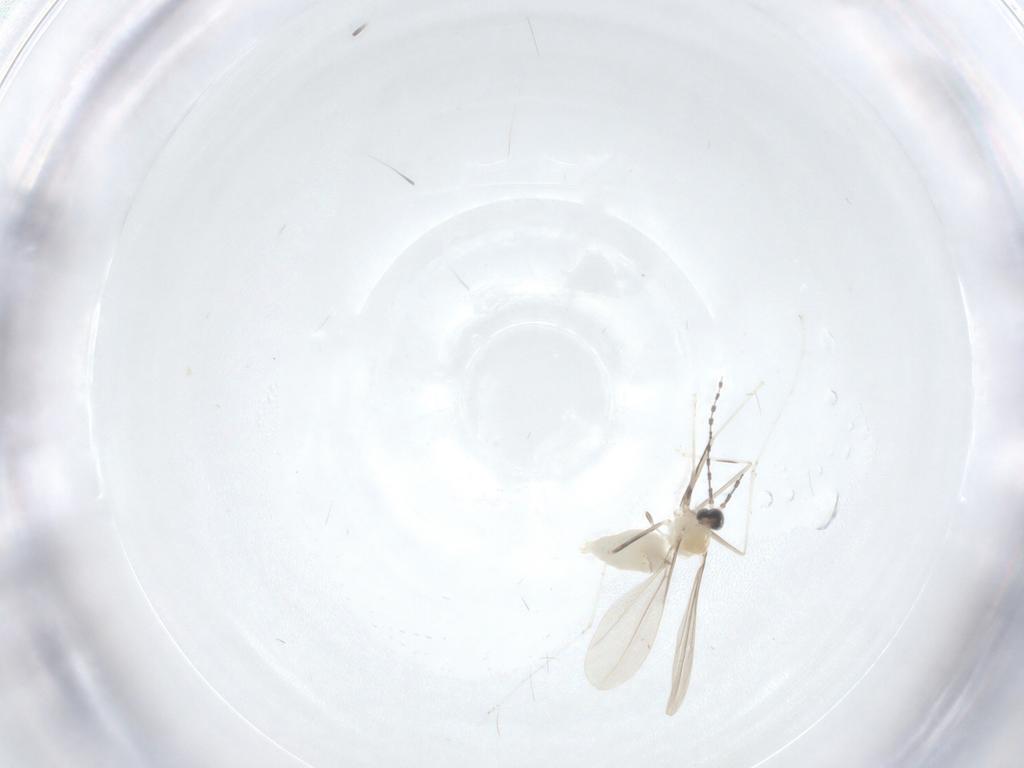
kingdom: Animalia
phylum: Arthropoda
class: Insecta
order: Diptera
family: Cecidomyiidae
